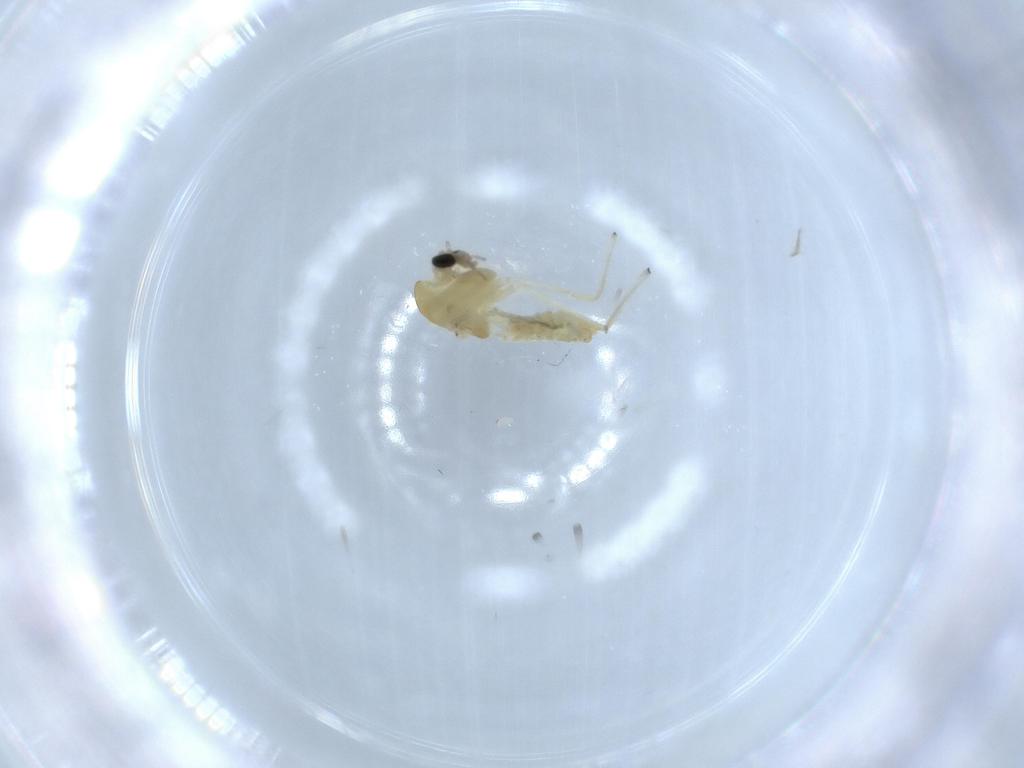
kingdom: Animalia
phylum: Arthropoda
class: Insecta
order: Diptera
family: Chironomidae
